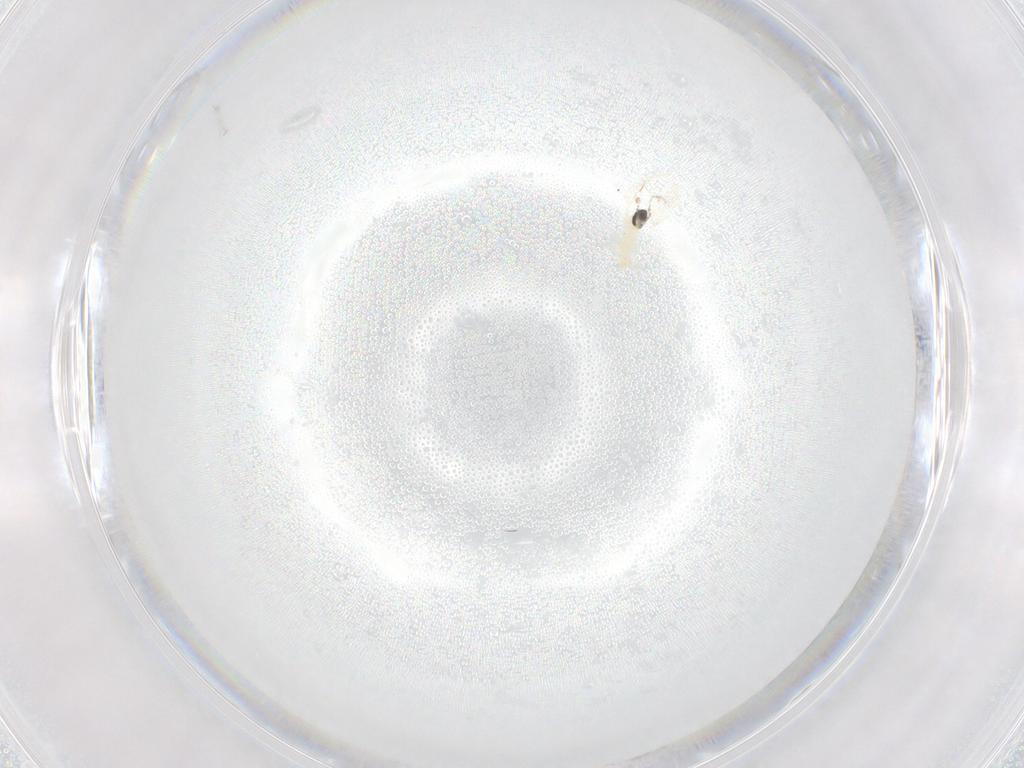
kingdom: Animalia
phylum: Arthropoda
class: Insecta
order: Diptera
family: Cecidomyiidae
